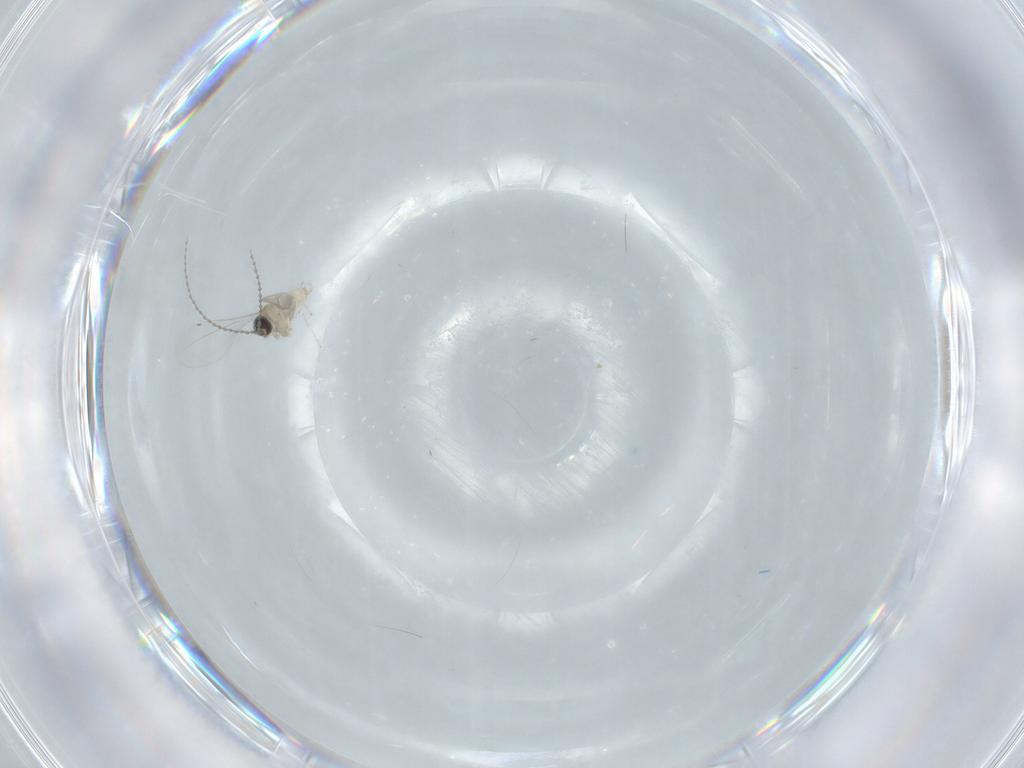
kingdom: Animalia
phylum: Arthropoda
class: Insecta
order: Diptera
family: Cecidomyiidae
